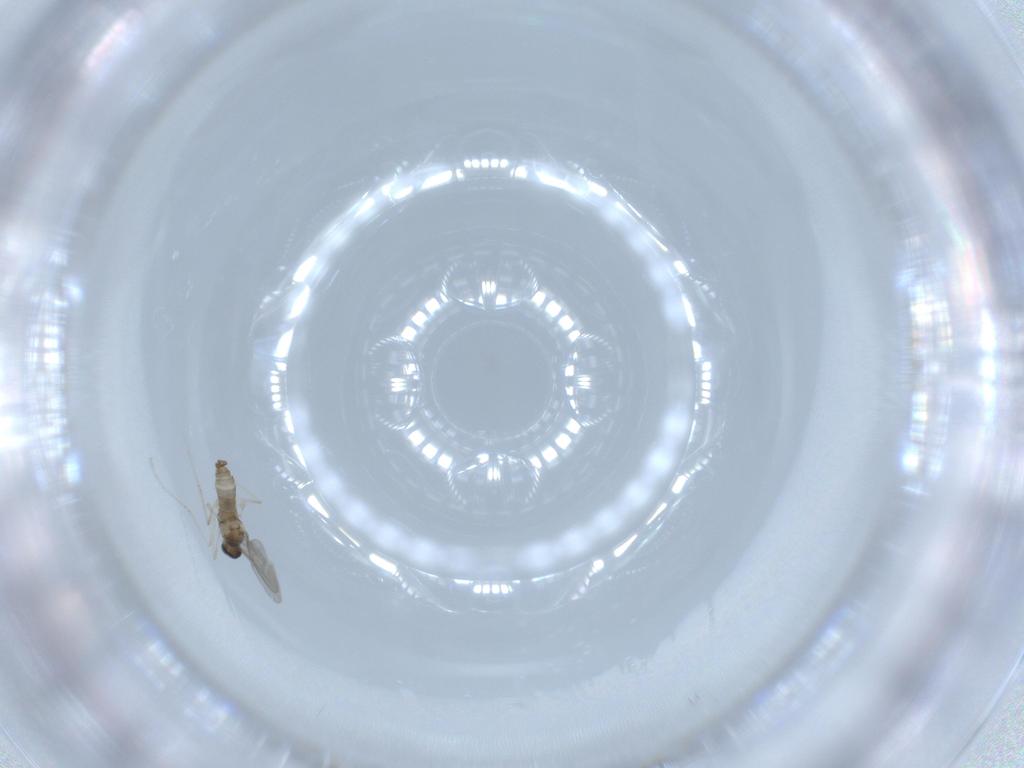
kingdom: Animalia
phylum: Arthropoda
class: Insecta
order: Diptera
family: Cecidomyiidae
